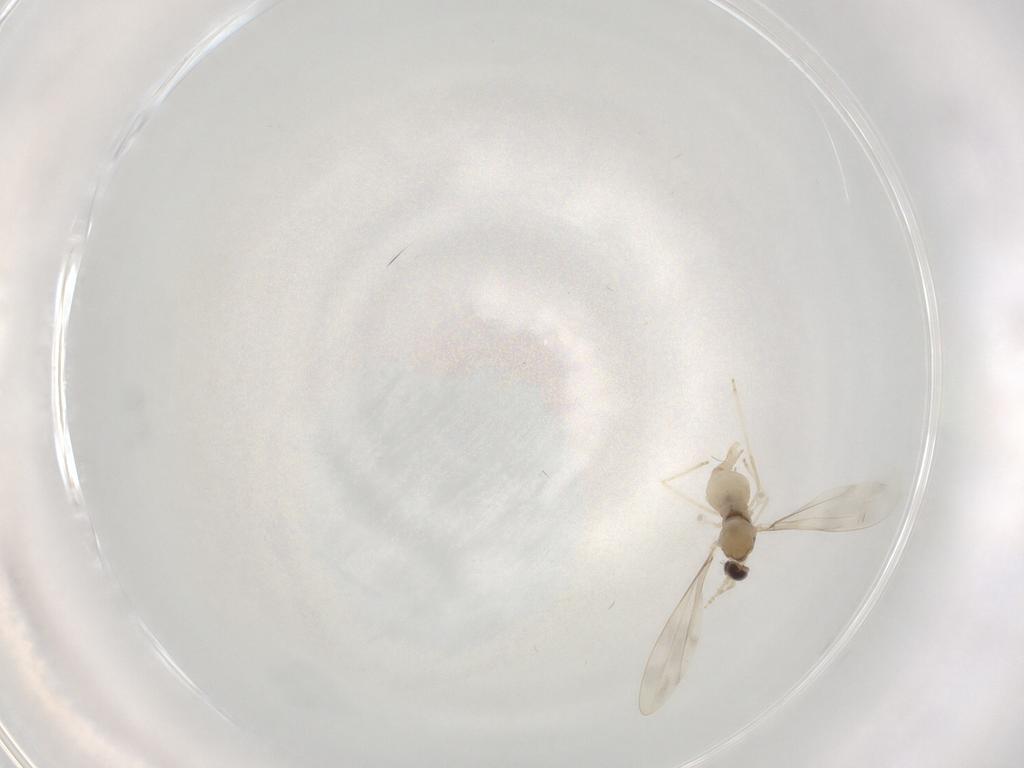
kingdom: Animalia
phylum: Arthropoda
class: Insecta
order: Diptera
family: Cecidomyiidae
